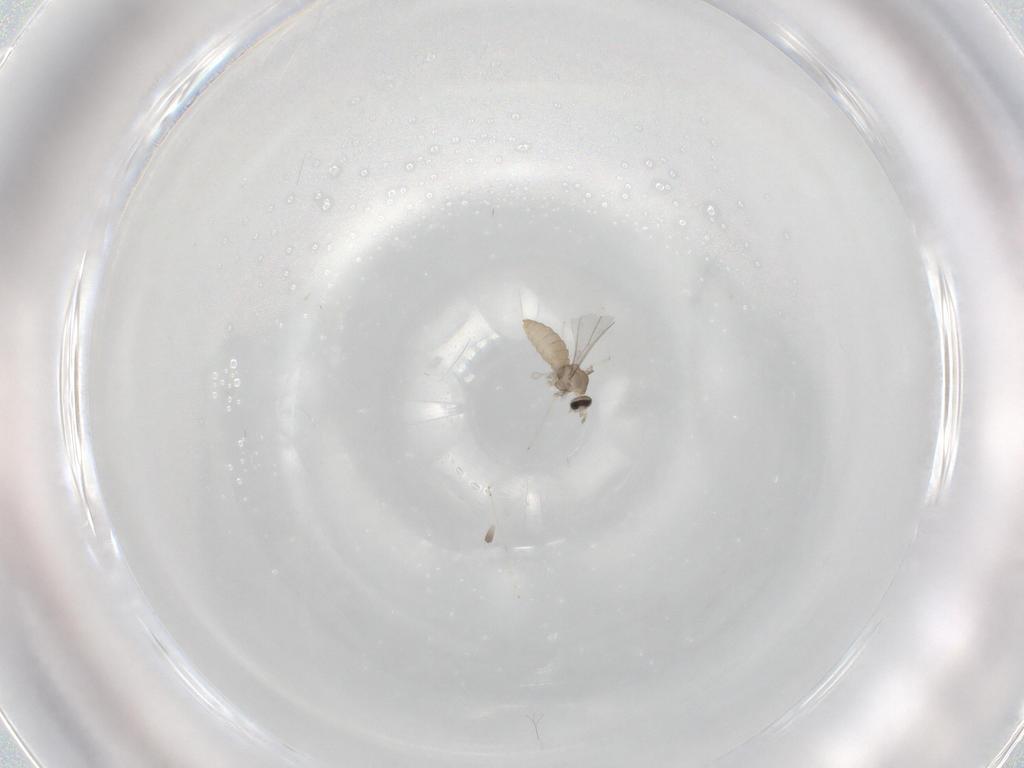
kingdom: Animalia
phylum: Arthropoda
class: Insecta
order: Diptera
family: Cecidomyiidae
